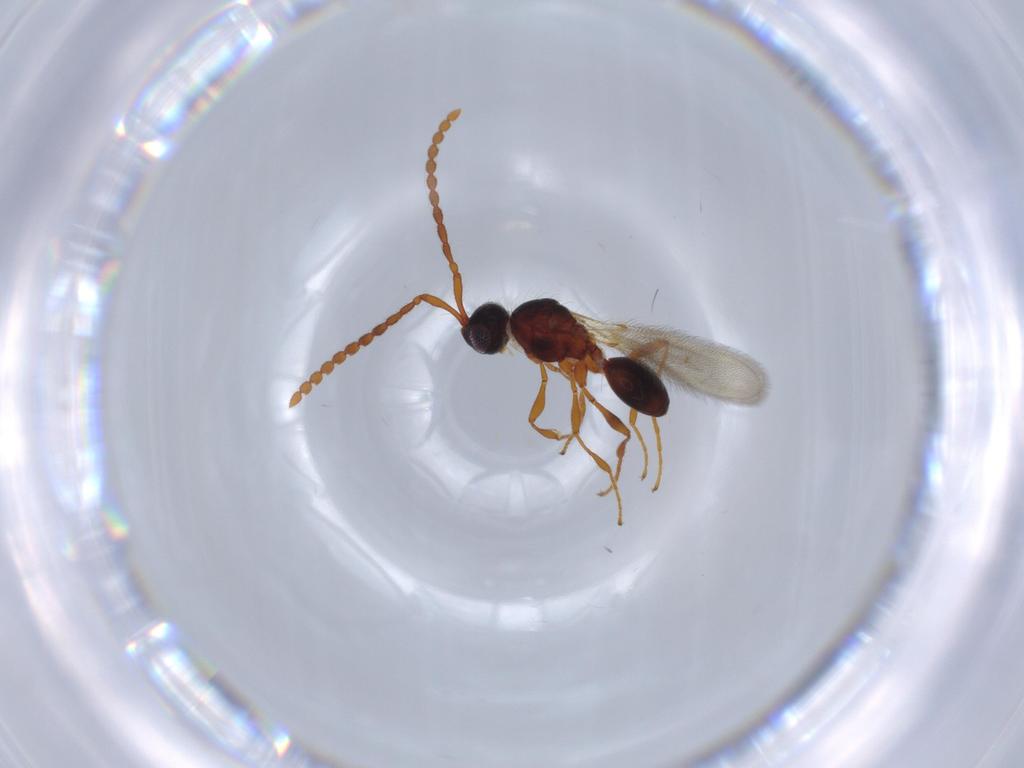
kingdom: Animalia
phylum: Arthropoda
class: Insecta
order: Hymenoptera
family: Diapriidae
